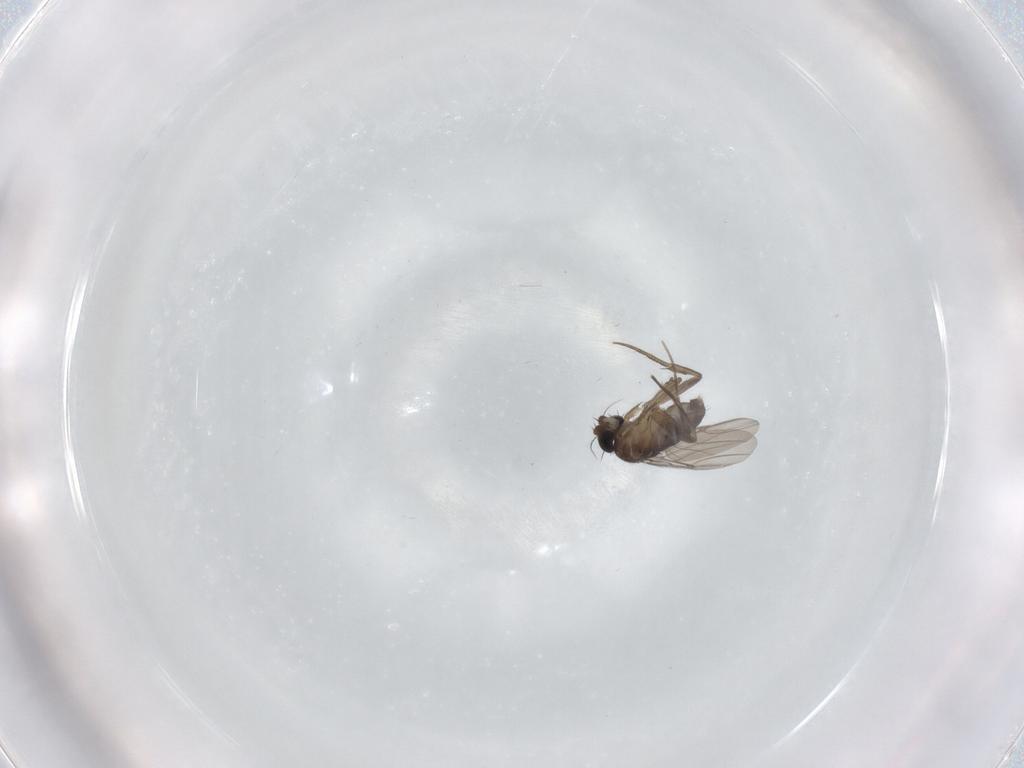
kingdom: Animalia
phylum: Arthropoda
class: Insecta
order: Diptera
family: Phoridae
